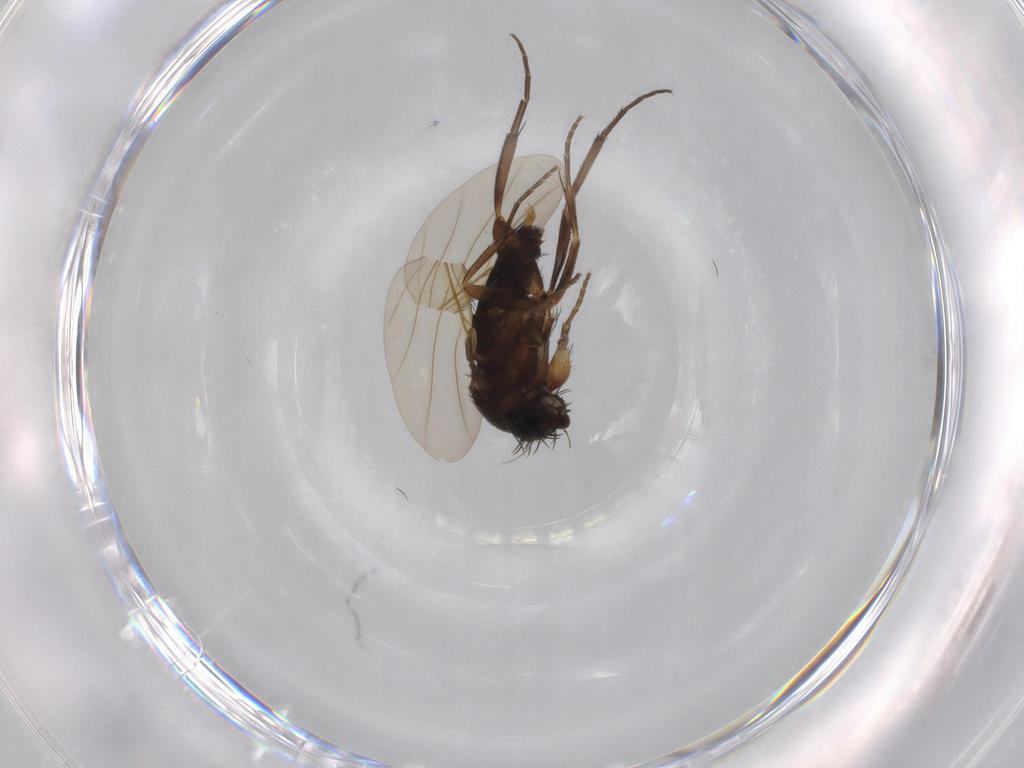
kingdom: Animalia
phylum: Arthropoda
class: Insecta
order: Diptera
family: Phoridae
